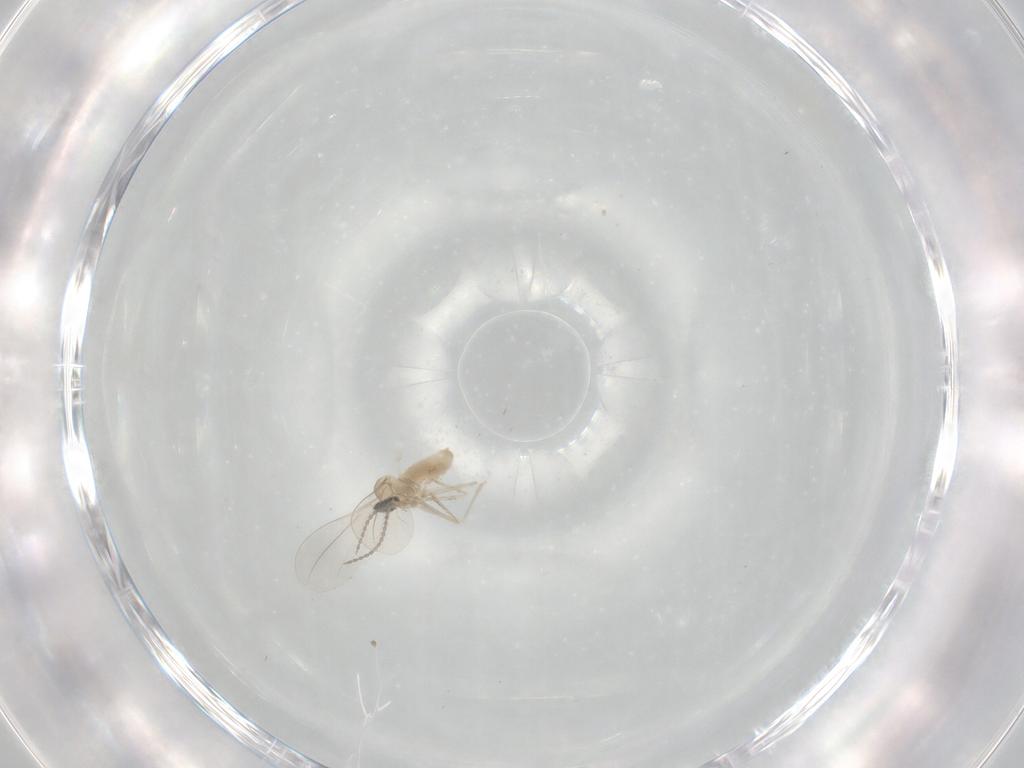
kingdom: Animalia
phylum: Arthropoda
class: Insecta
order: Diptera
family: Cecidomyiidae
